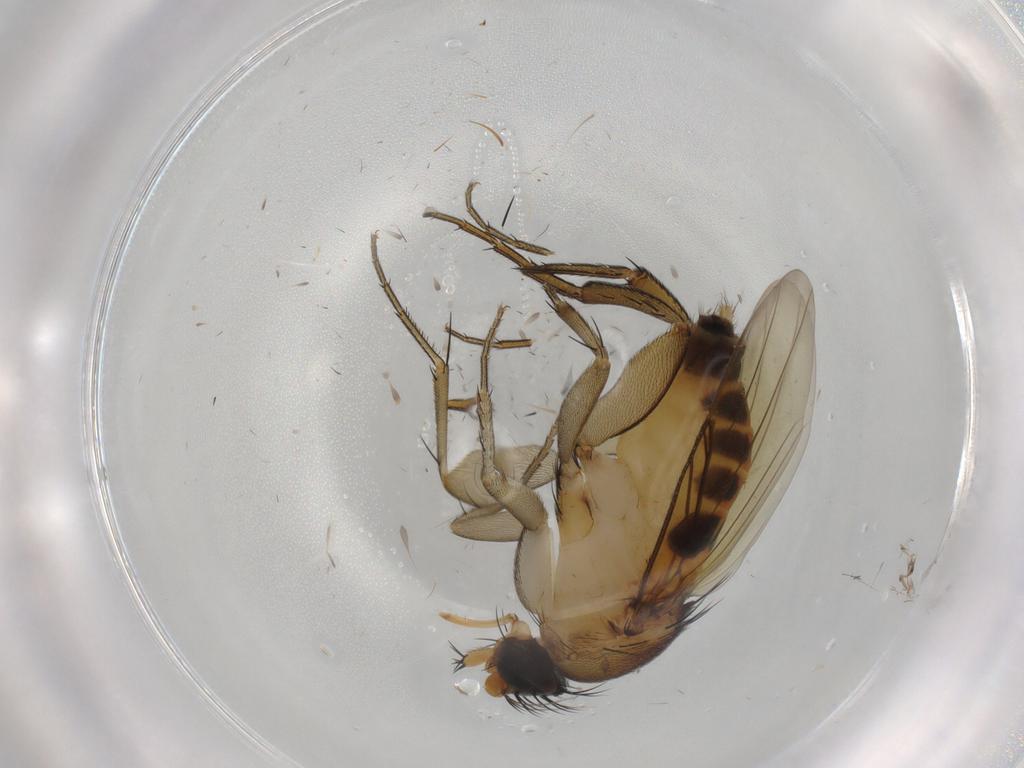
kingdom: Animalia
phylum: Arthropoda
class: Insecta
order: Diptera
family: Phoridae
